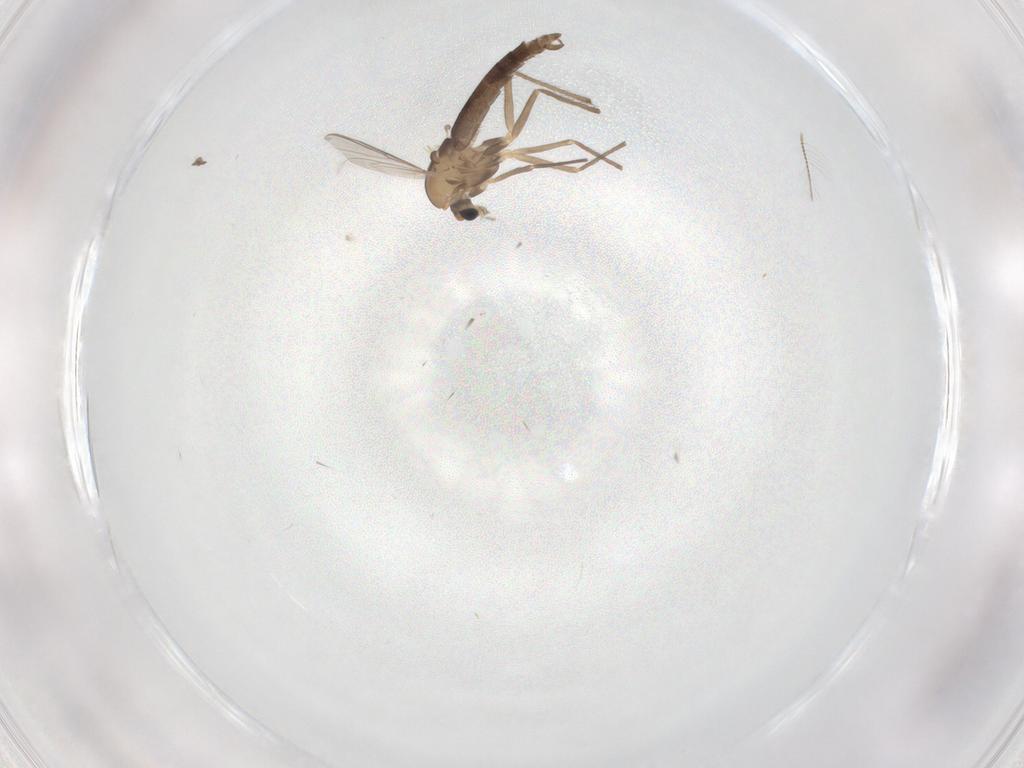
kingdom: Animalia
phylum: Arthropoda
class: Insecta
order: Diptera
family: Chironomidae
